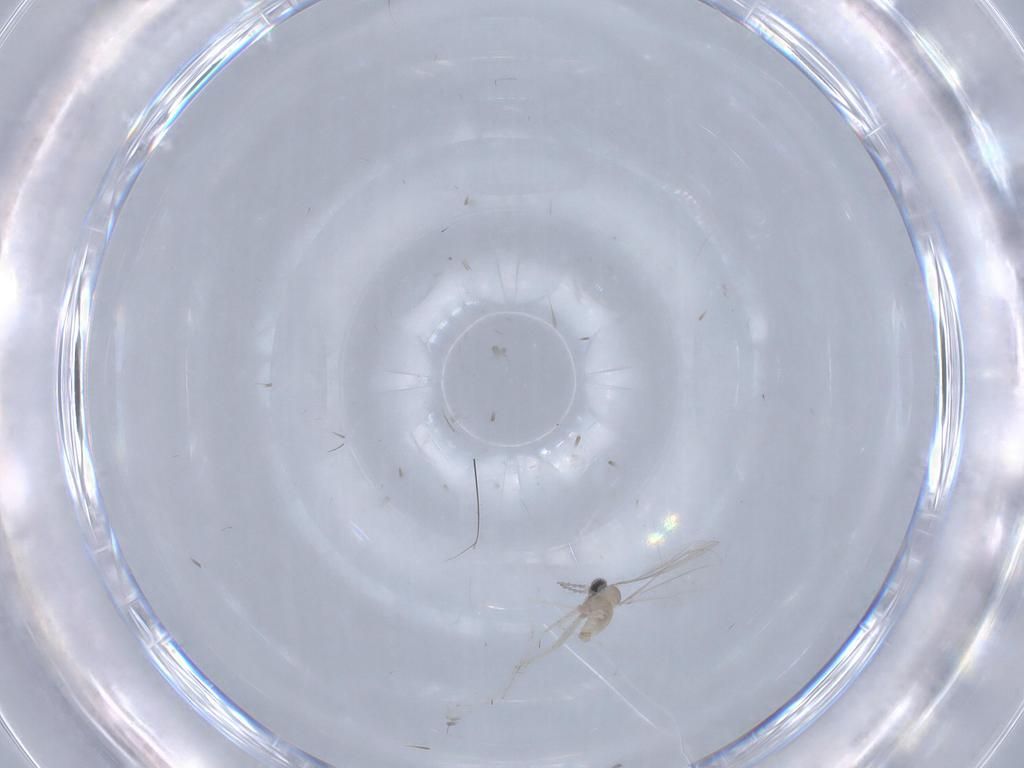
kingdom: Animalia
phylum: Arthropoda
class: Insecta
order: Diptera
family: Cecidomyiidae
